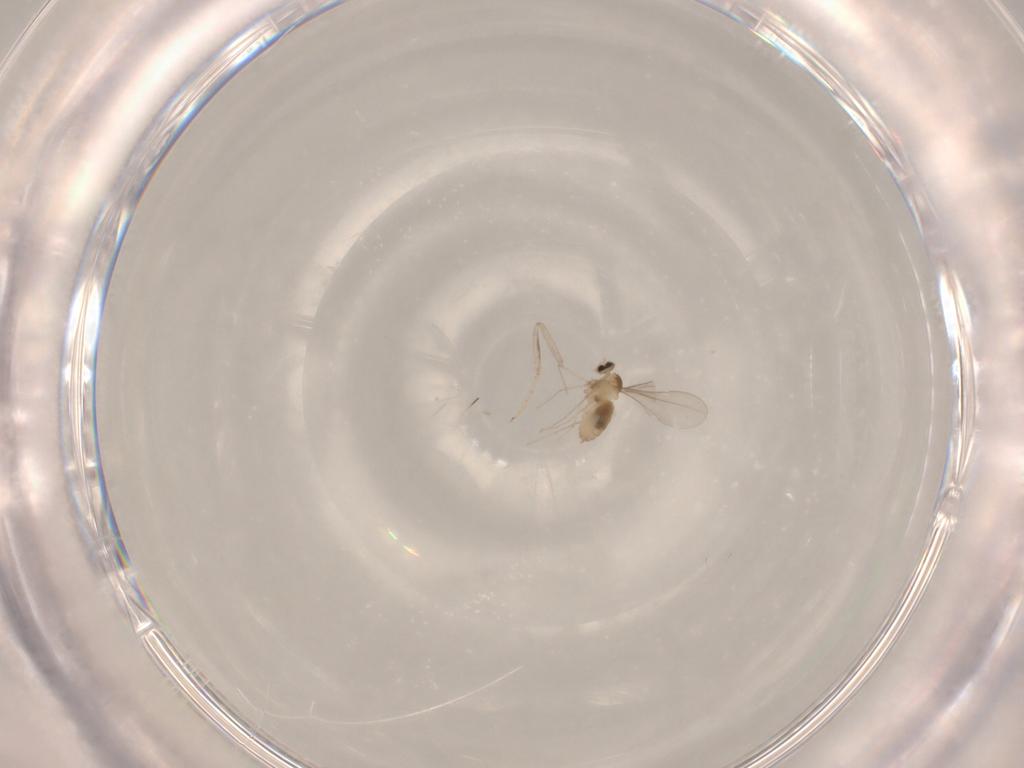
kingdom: Animalia
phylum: Arthropoda
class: Insecta
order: Diptera
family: Cecidomyiidae
